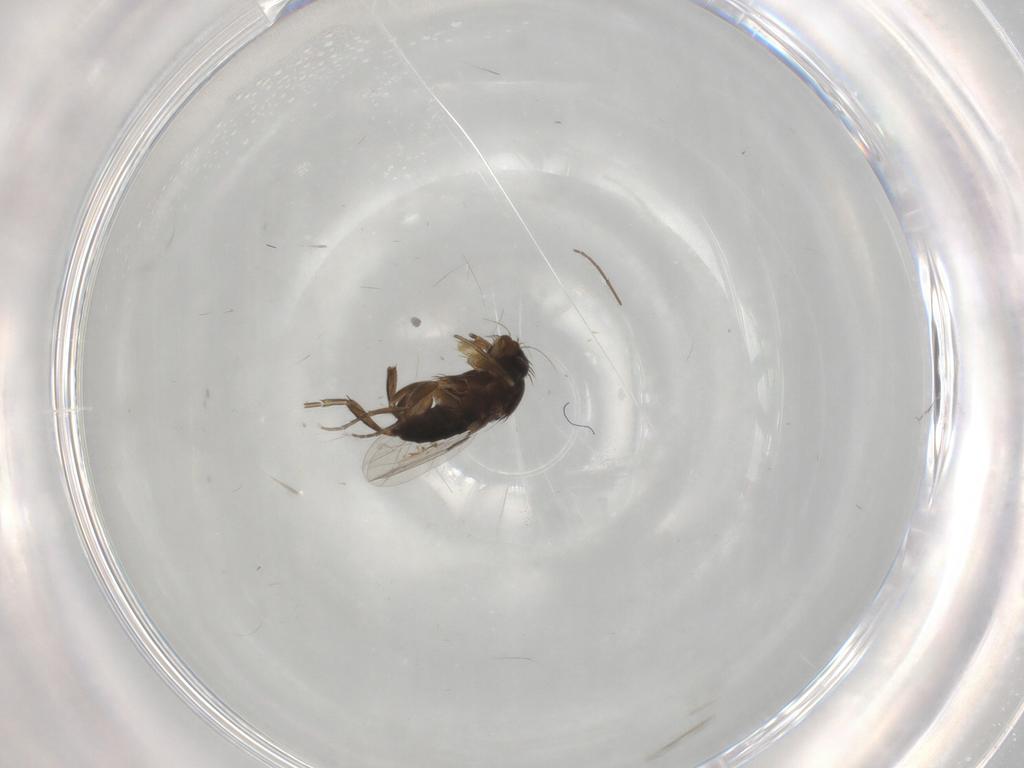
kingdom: Animalia
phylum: Arthropoda
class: Insecta
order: Diptera
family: Phoridae
